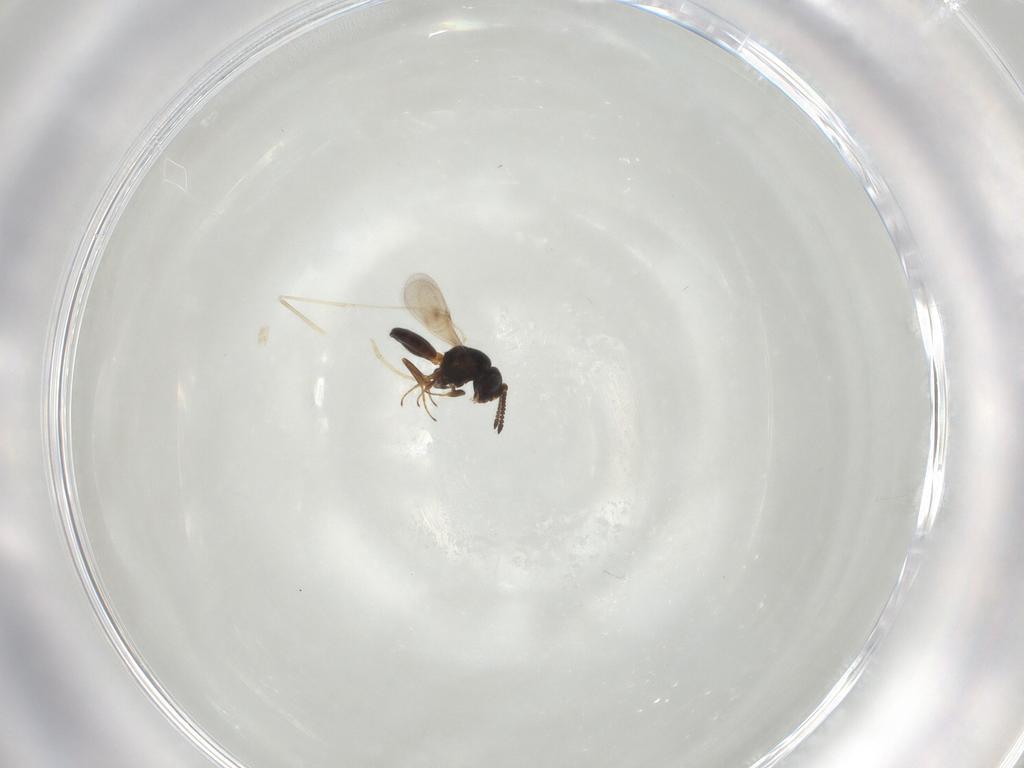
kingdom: Animalia
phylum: Arthropoda
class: Insecta
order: Hymenoptera
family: Scelionidae
